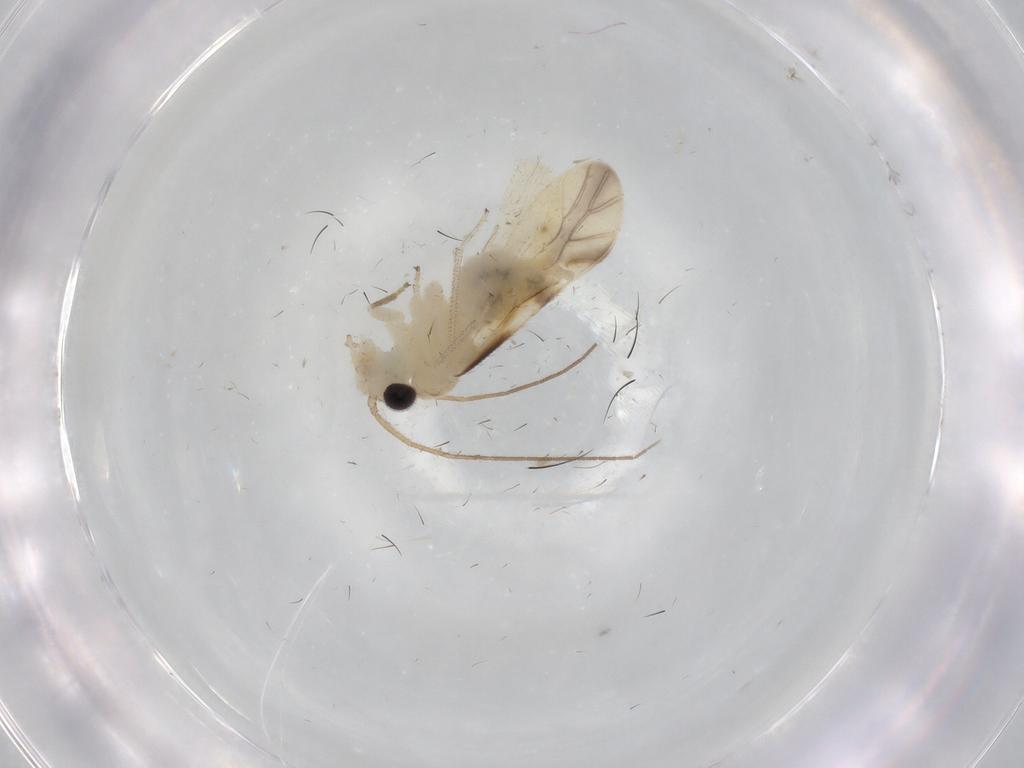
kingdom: Animalia
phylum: Arthropoda
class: Insecta
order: Psocodea
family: Caeciliusidae
